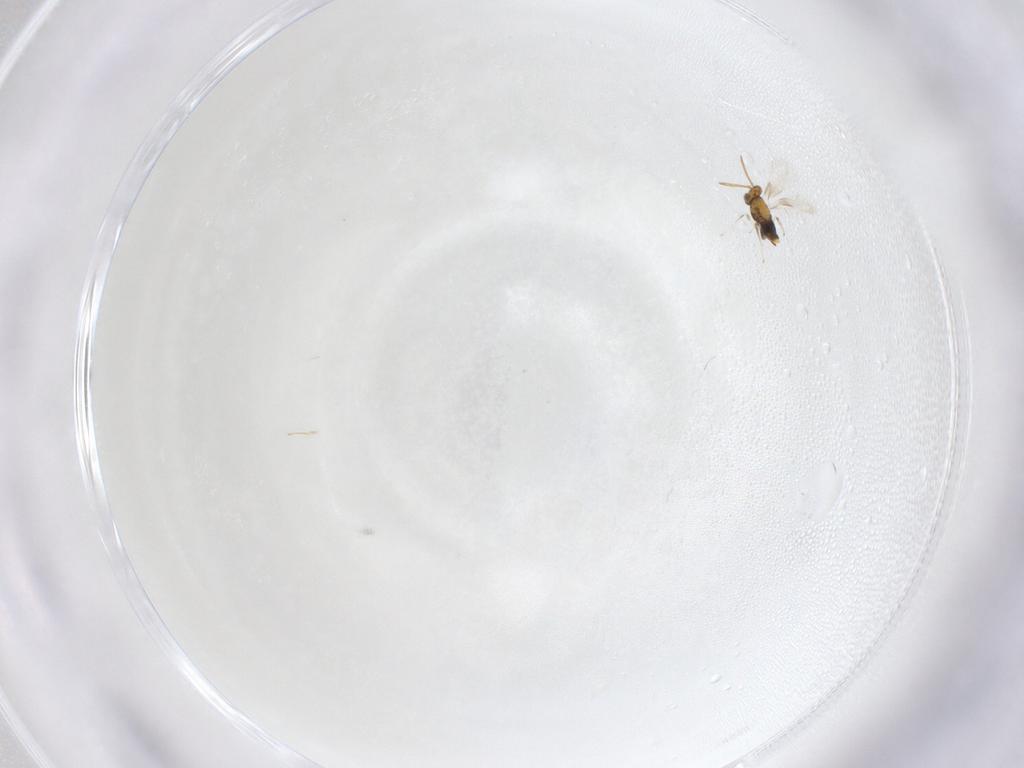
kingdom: Animalia
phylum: Arthropoda
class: Insecta
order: Hymenoptera
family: Aphelinidae
